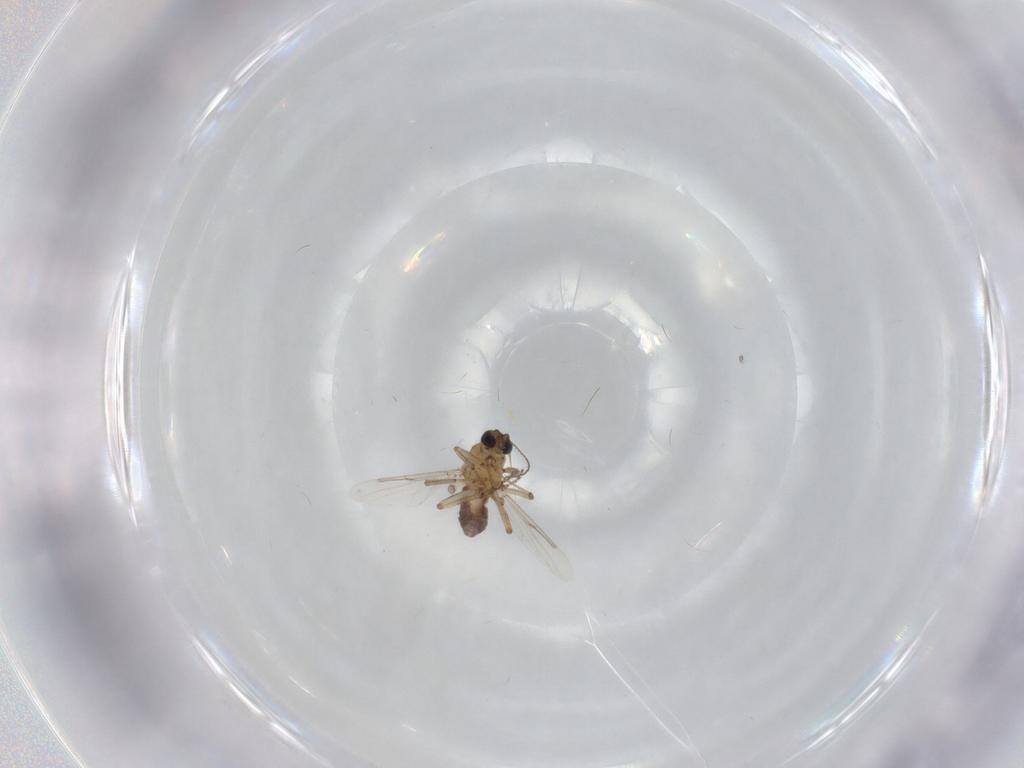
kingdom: Animalia
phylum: Arthropoda
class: Insecta
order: Diptera
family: Ceratopogonidae
